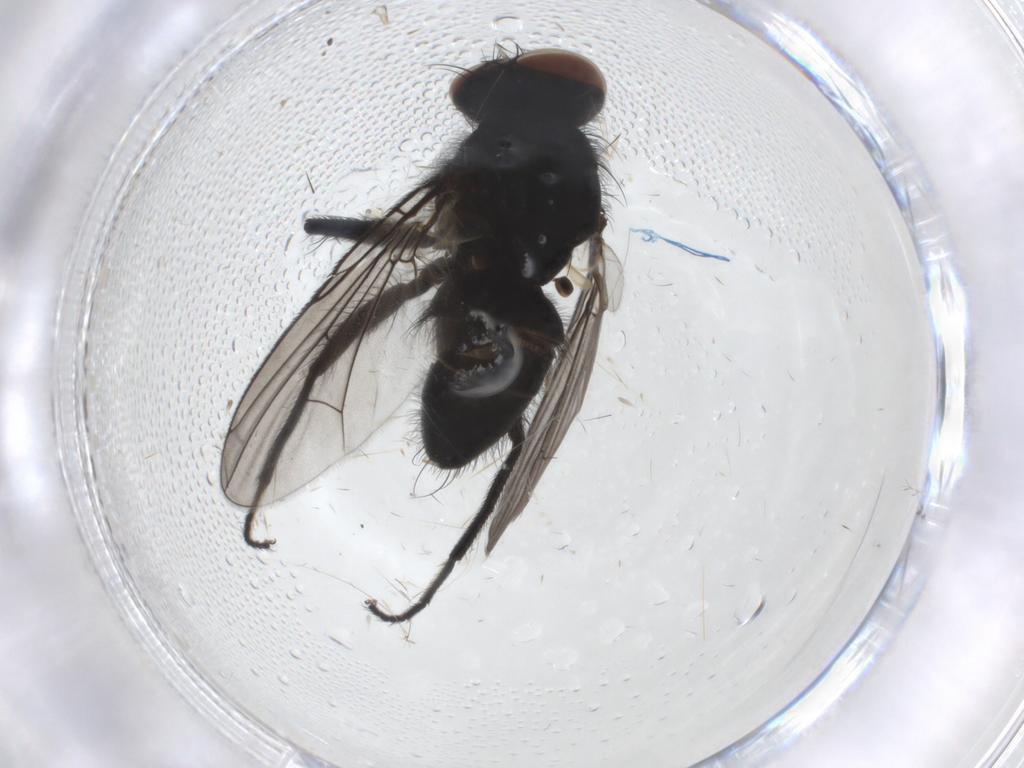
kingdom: Animalia
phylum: Arthropoda
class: Insecta
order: Diptera
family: Muscidae
